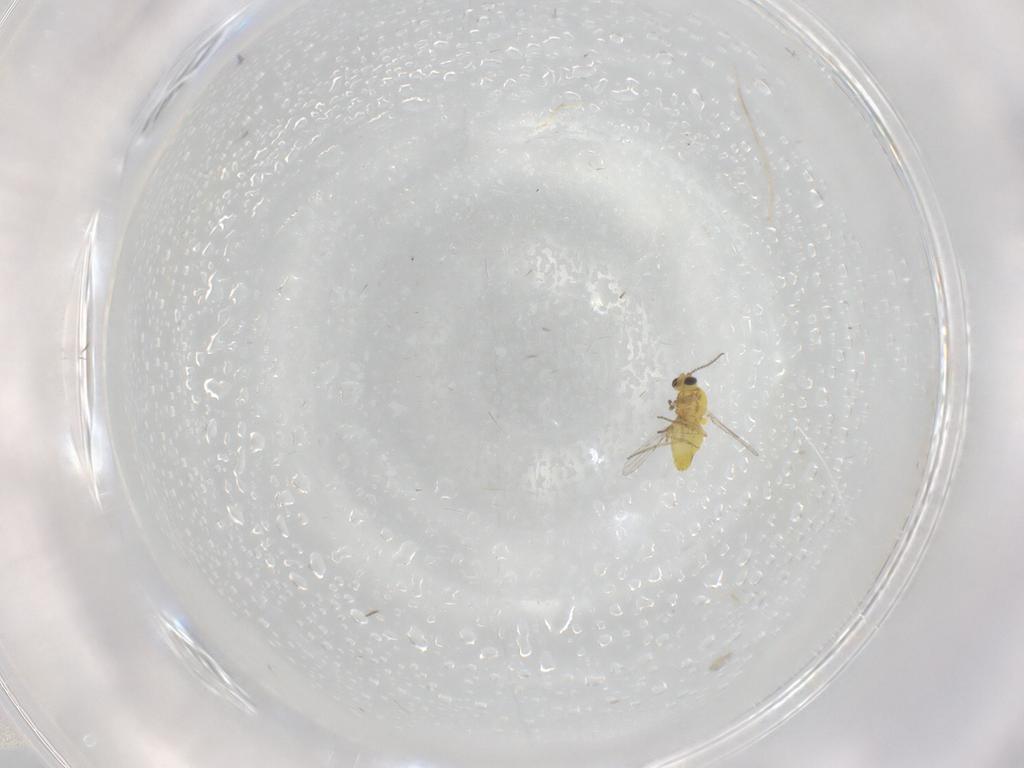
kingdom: Animalia
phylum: Arthropoda
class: Insecta
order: Diptera
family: Ceratopogonidae
